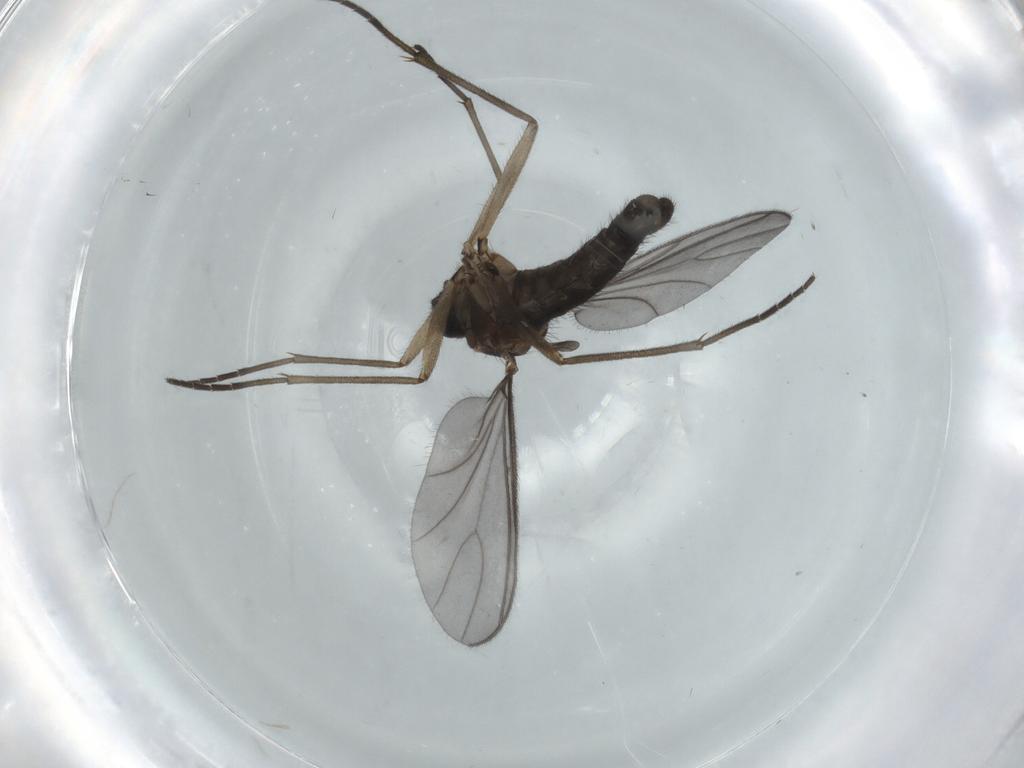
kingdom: Animalia
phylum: Arthropoda
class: Insecta
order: Diptera
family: Sciaridae
